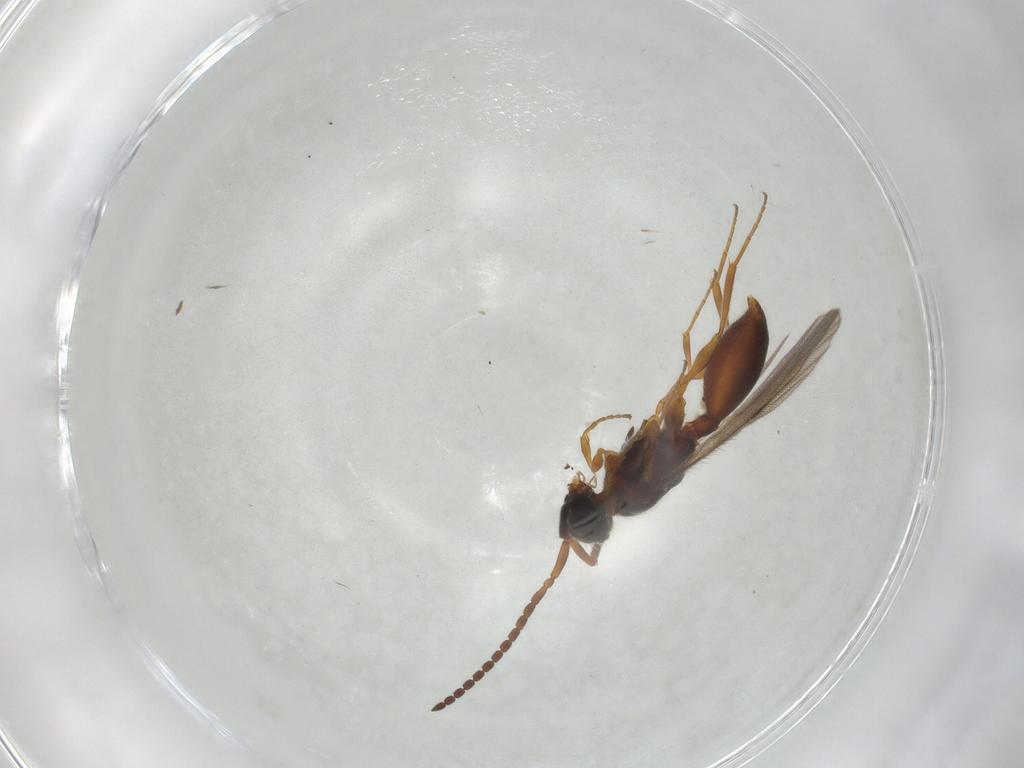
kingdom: Animalia
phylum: Arthropoda
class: Insecta
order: Hymenoptera
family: Diapriidae
